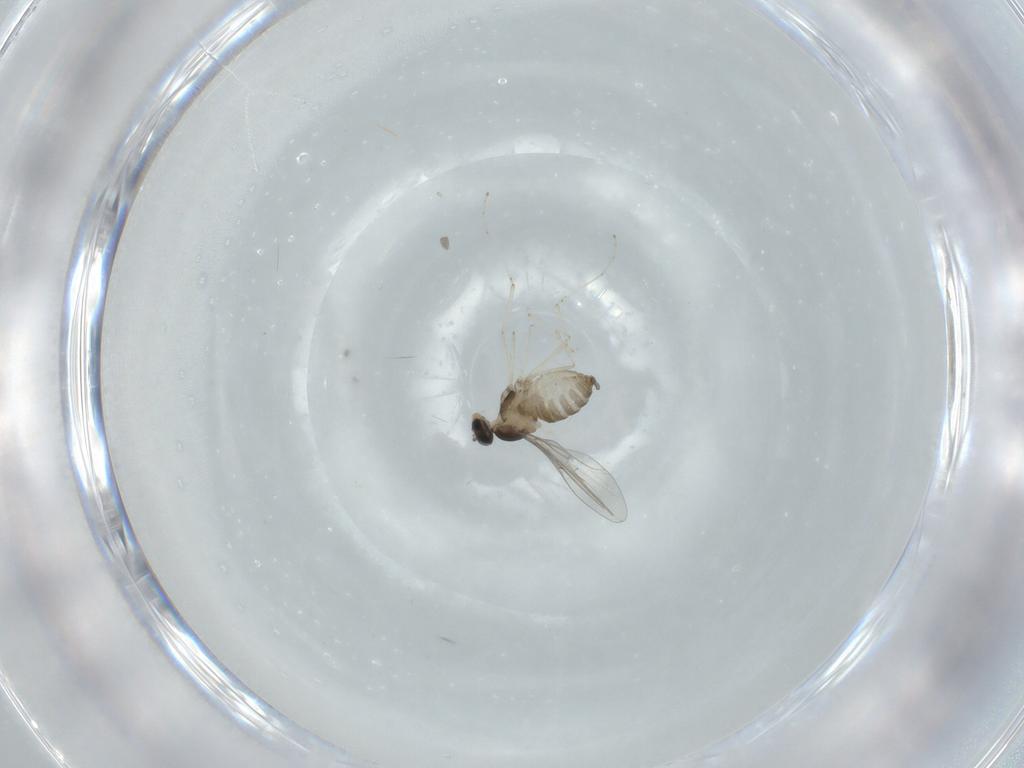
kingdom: Animalia
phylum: Arthropoda
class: Insecta
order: Diptera
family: Cecidomyiidae
